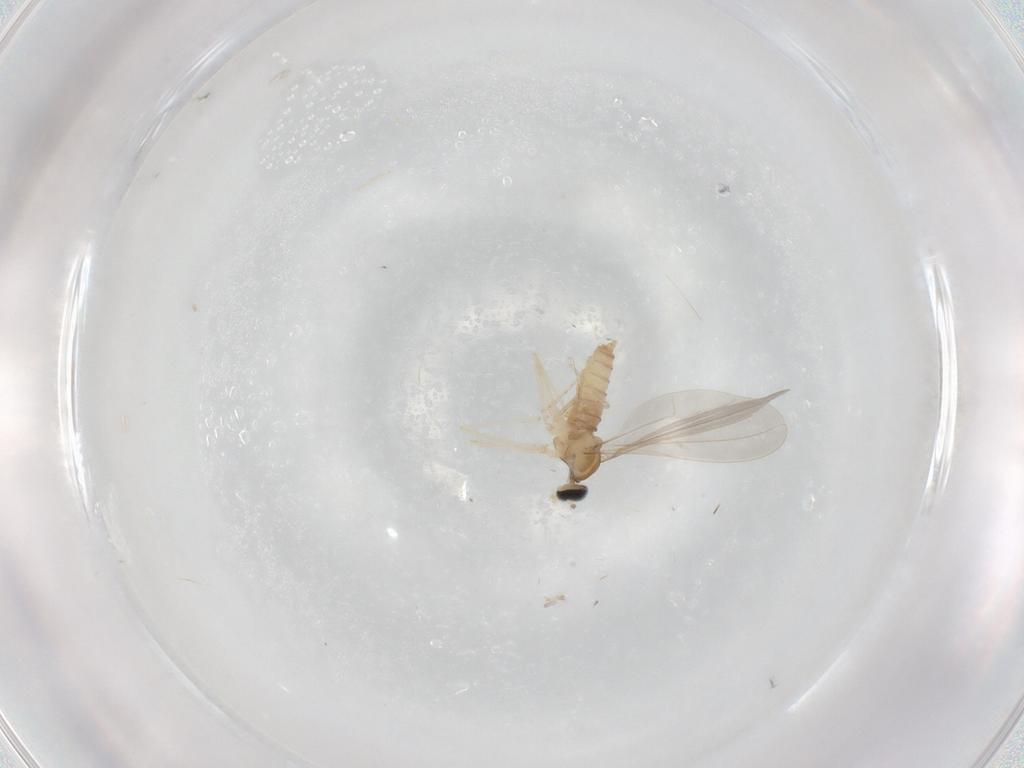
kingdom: Animalia
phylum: Arthropoda
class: Insecta
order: Diptera
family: Cecidomyiidae
